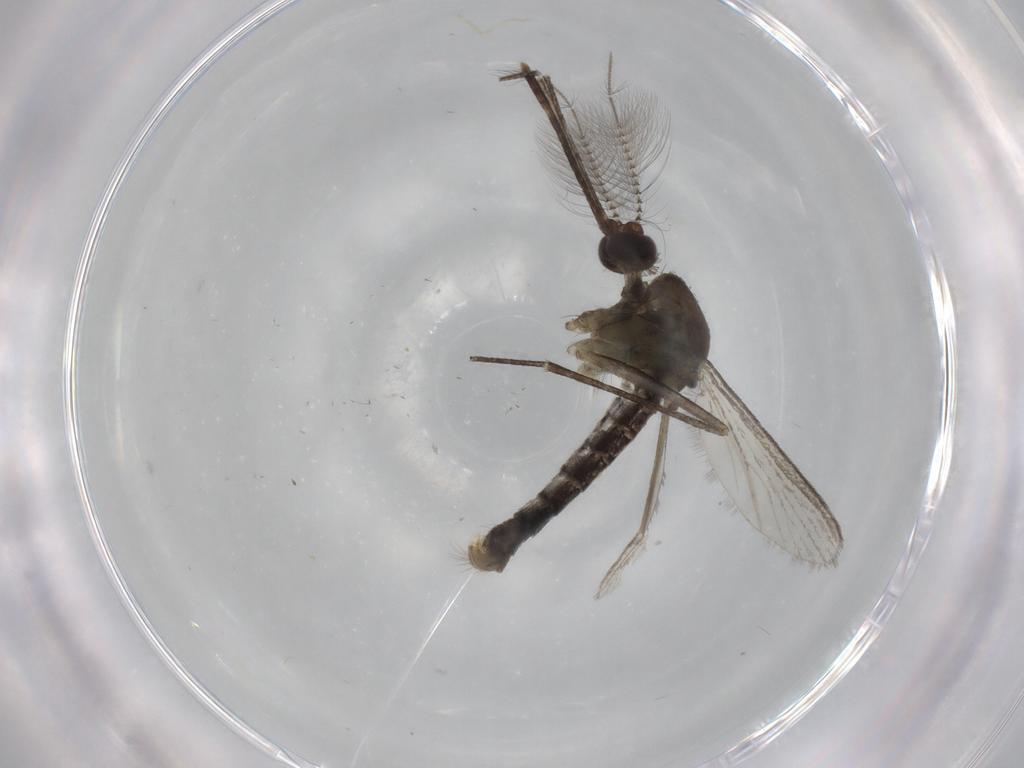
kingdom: Animalia
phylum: Arthropoda
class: Insecta
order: Diptera
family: Culicidae
